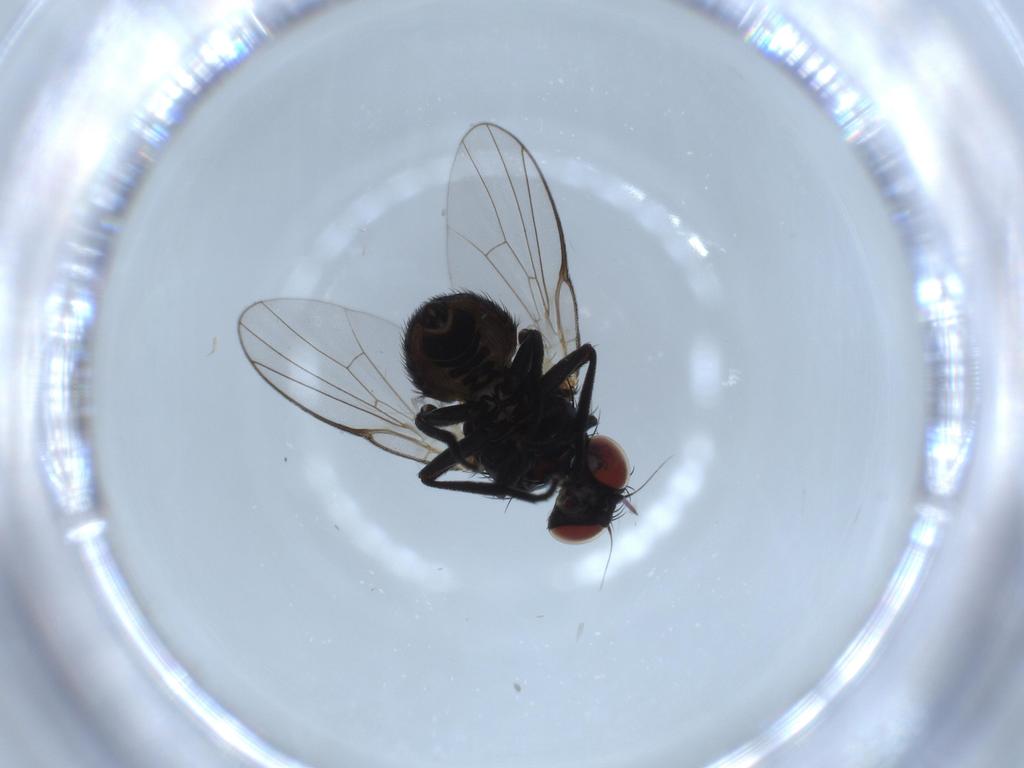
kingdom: Animalia
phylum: Arthropoda
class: Insecta
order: Diptera
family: Agromyzidae
